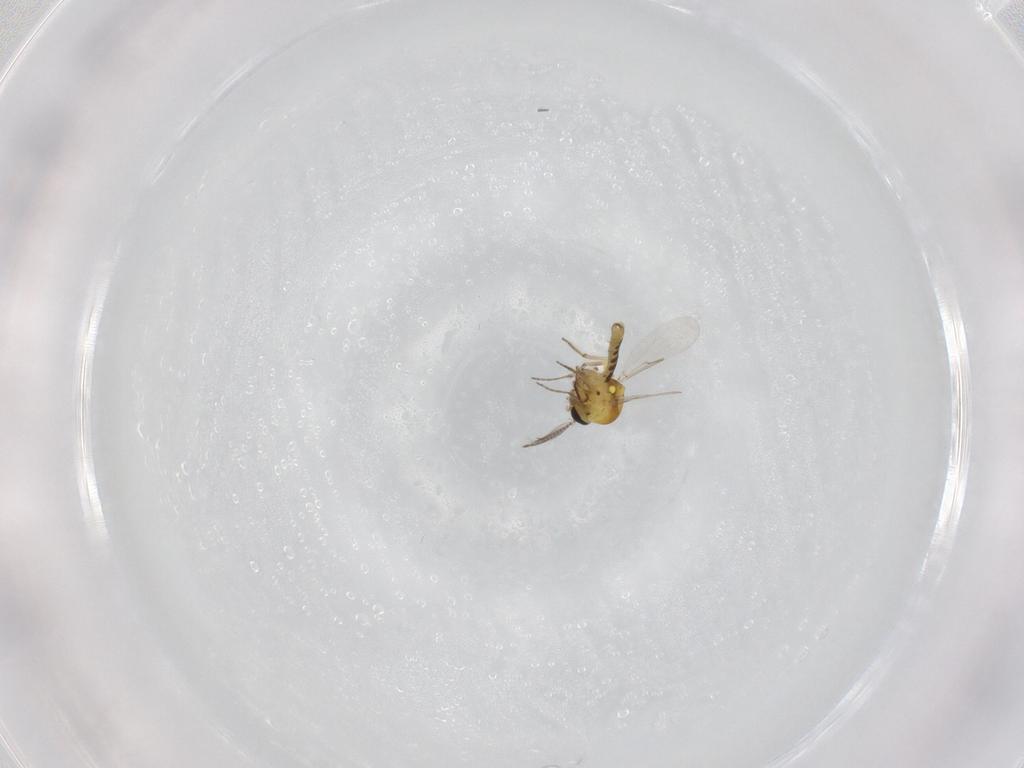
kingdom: Animalia
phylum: Arthropoda
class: Insecta
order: Diptera
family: Ceratopogonidae
